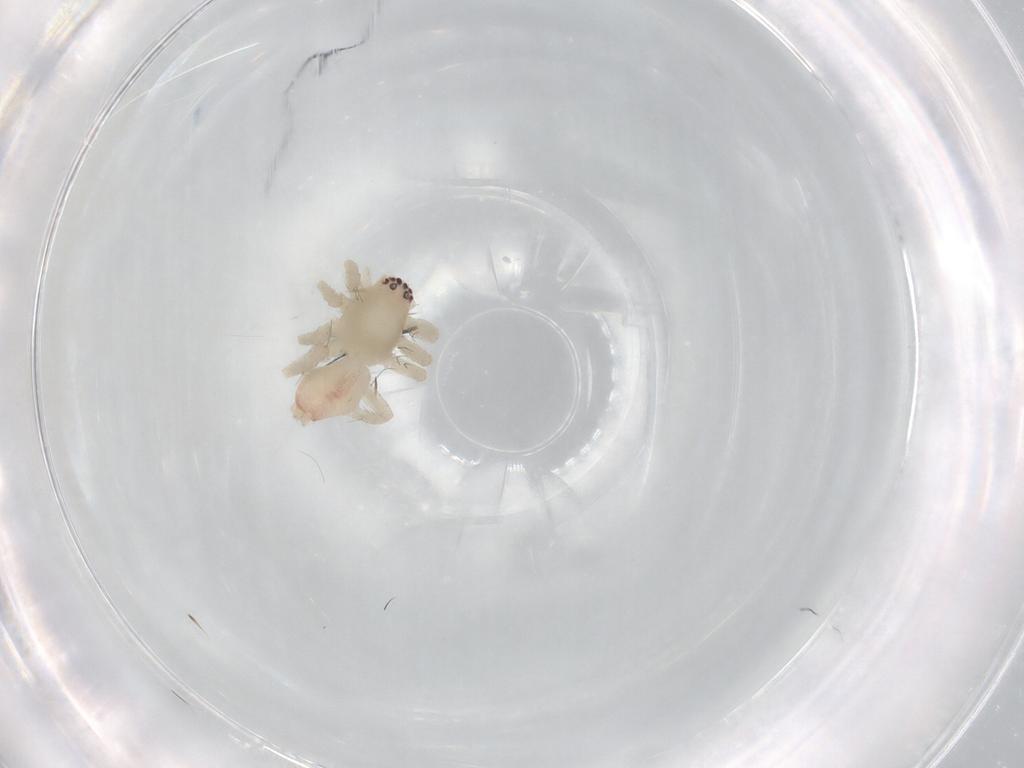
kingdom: Animalia
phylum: Arthropoda
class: Arachnida
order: Araneae
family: Clubionidae
